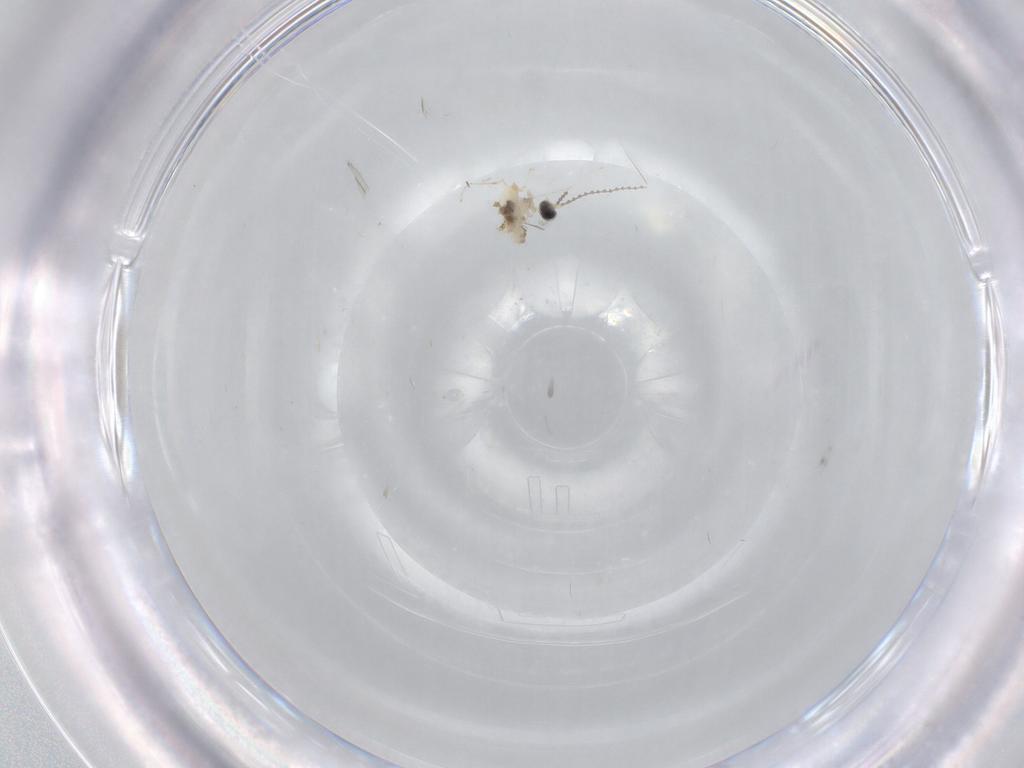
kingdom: Animalia
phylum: Arthropoda
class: Insecta
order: Diptera
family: Cecidomyiidae
